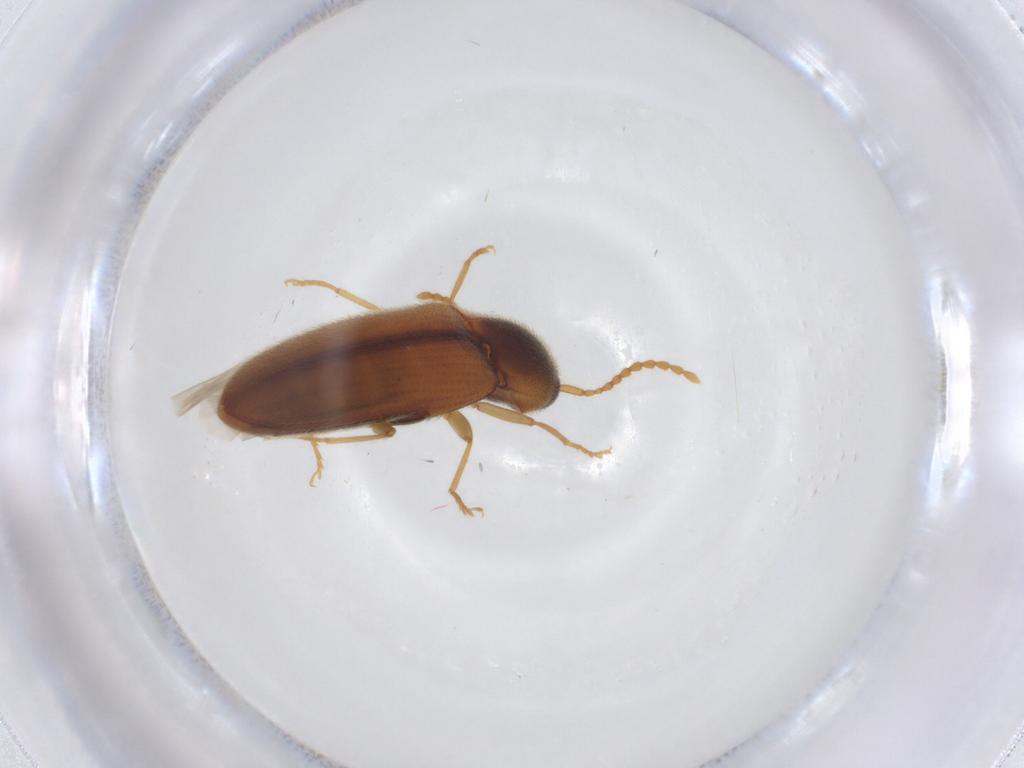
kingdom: Animalia
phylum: Arthropoda
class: Insecta
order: Coleoptera
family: Elateridae
